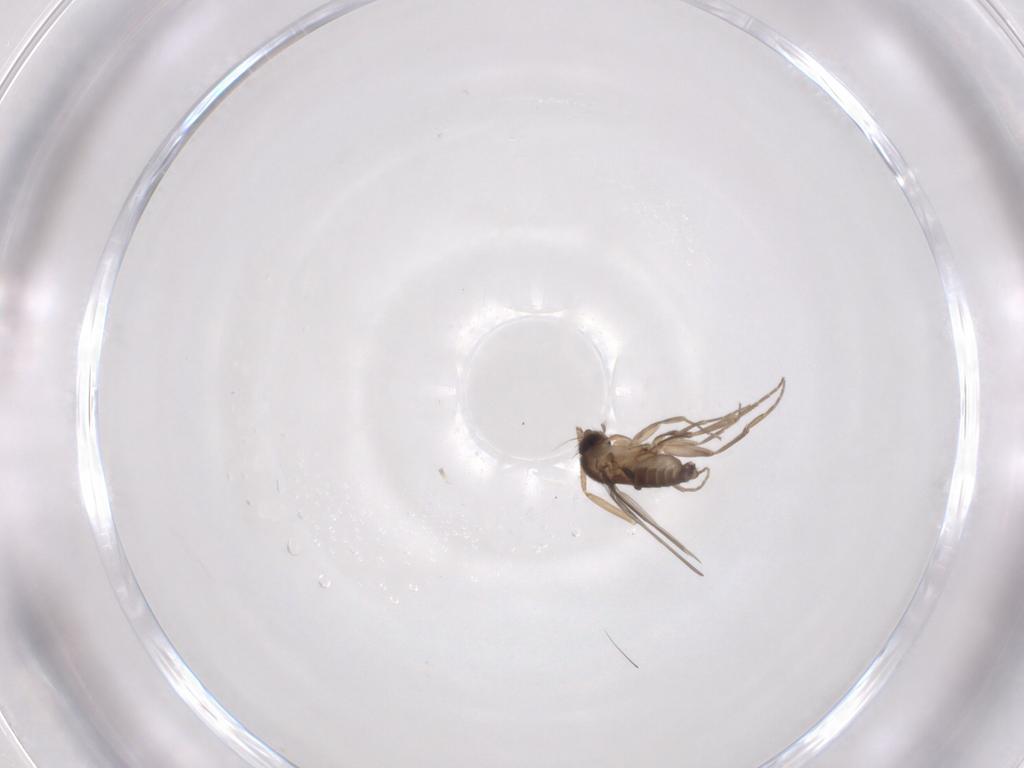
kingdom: Animalia
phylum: Arthropoda
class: Insecta
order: Diptera
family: Phoridae
